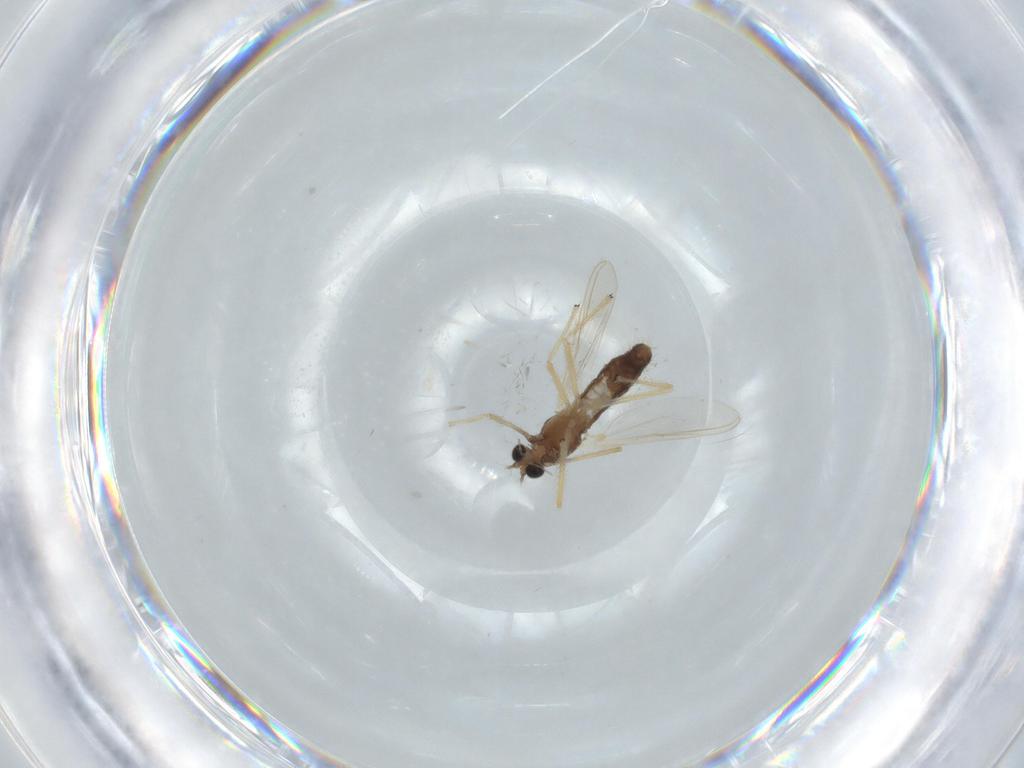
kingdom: Animalia
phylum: Arthropoda
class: Insecta
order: Diptera
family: Chironomidae
